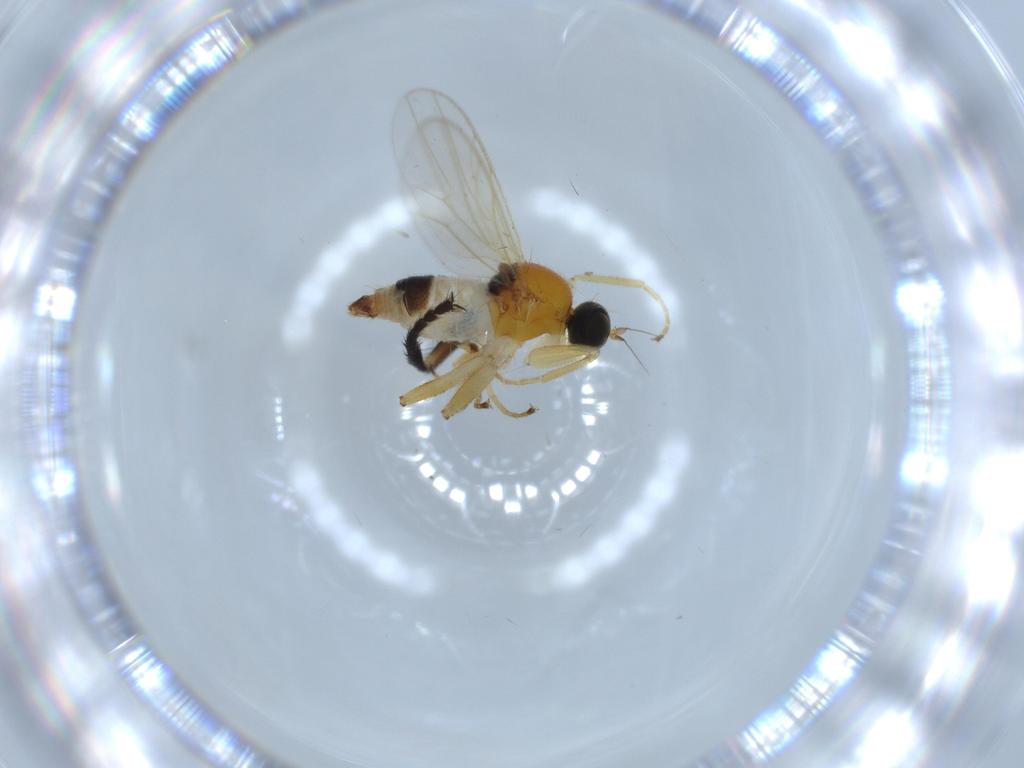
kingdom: Animalia
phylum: Arthropoda
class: Insecta
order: Diptera
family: Hybotidae
